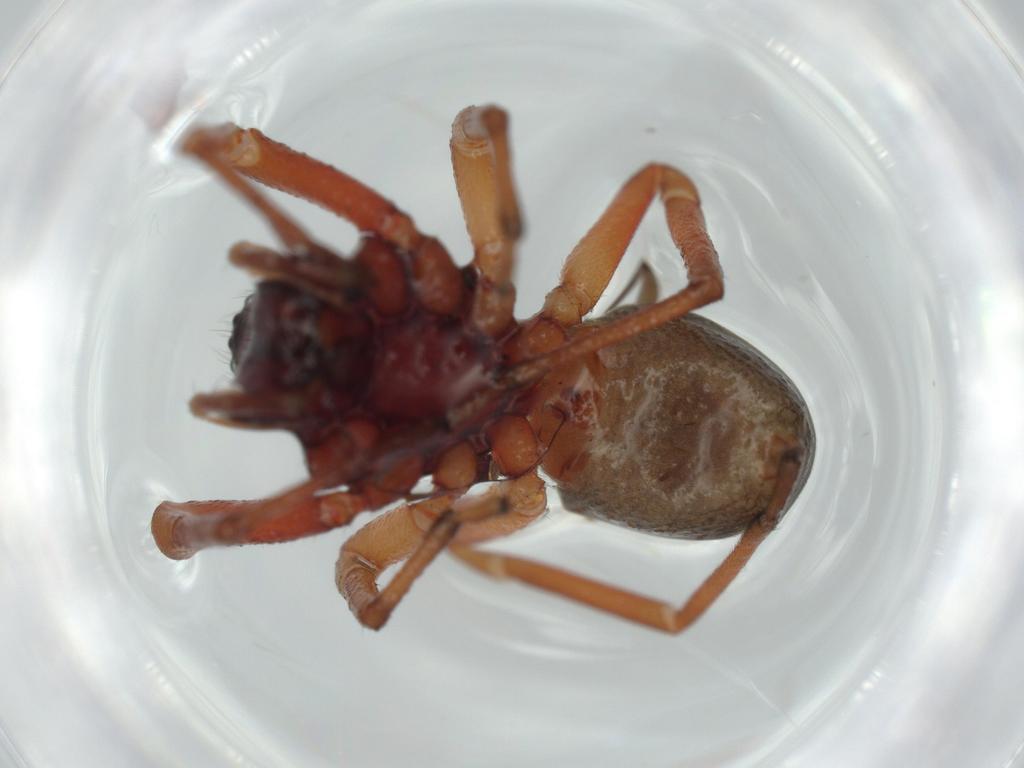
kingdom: Animalia
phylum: Arthropoda
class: Arachnida
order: Araneae
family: Trachelidae
